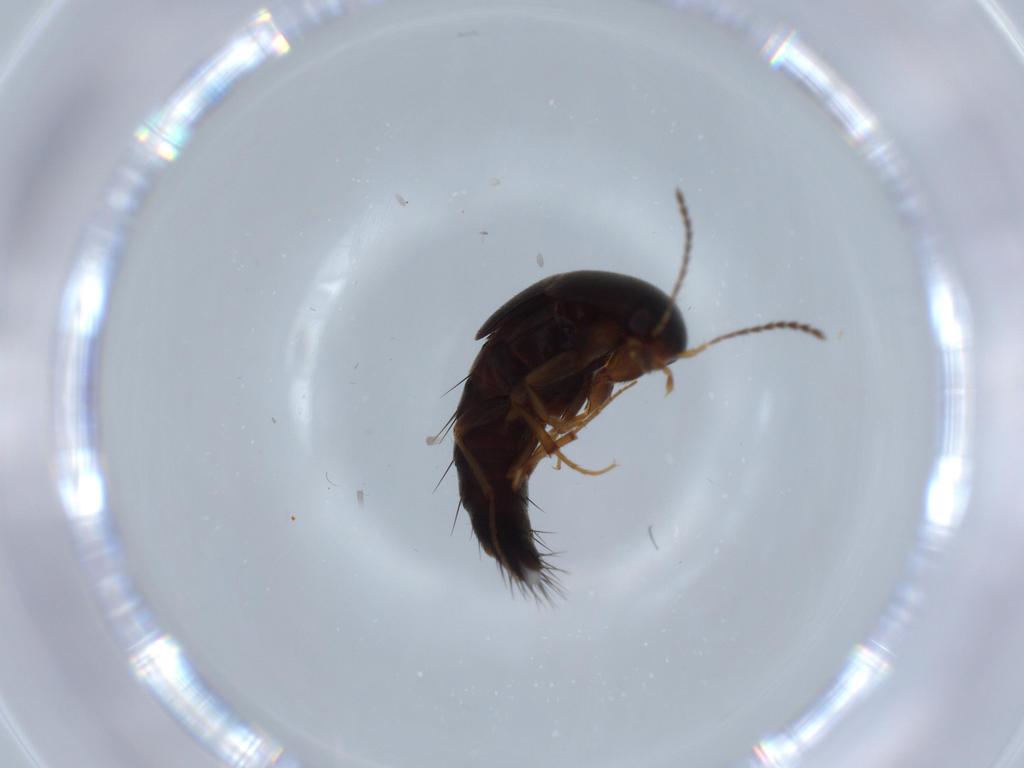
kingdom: Animalia
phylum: Arthropoda
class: Insecta
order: Coleoptera
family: Staphylinidae
